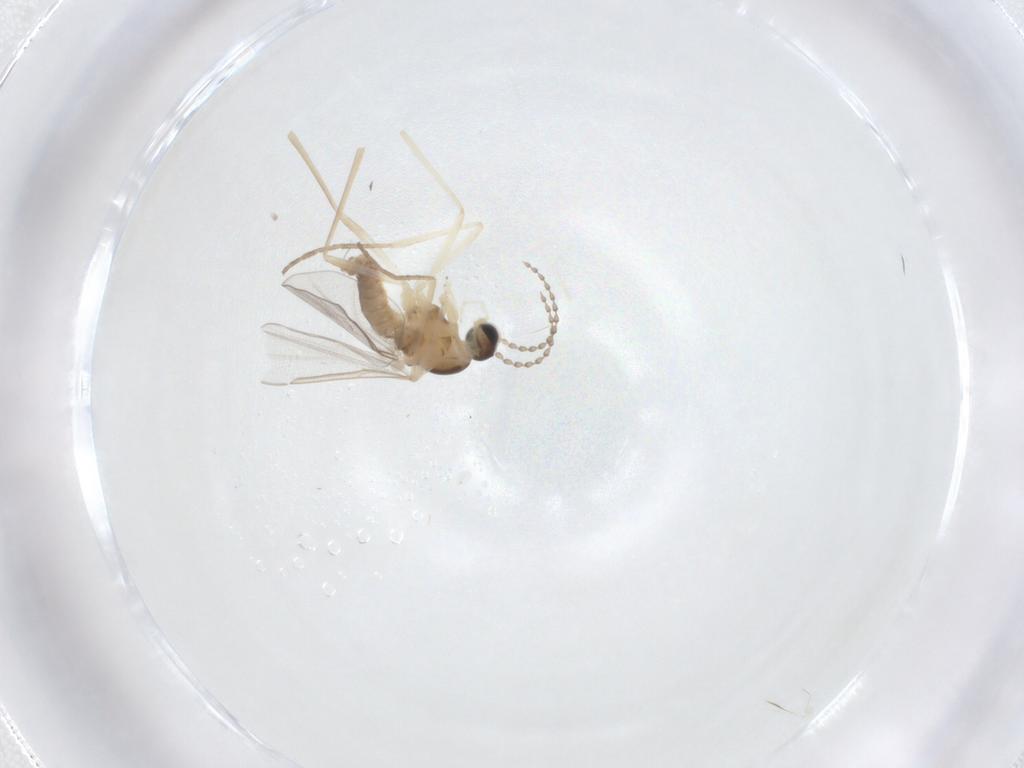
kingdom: Animalia
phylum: Arthropoda
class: Insecta
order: Diptera
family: Cecidomyiidae
